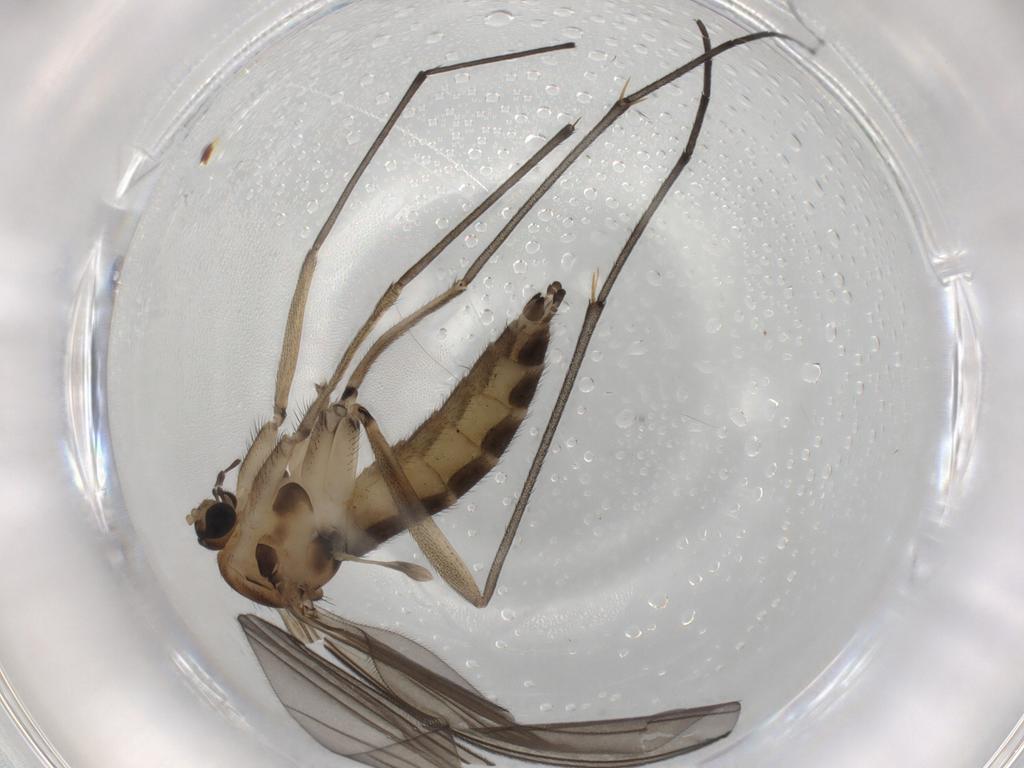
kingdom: Animalia
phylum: Arthropoda
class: Insecta
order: Diptera
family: Sciaridae
